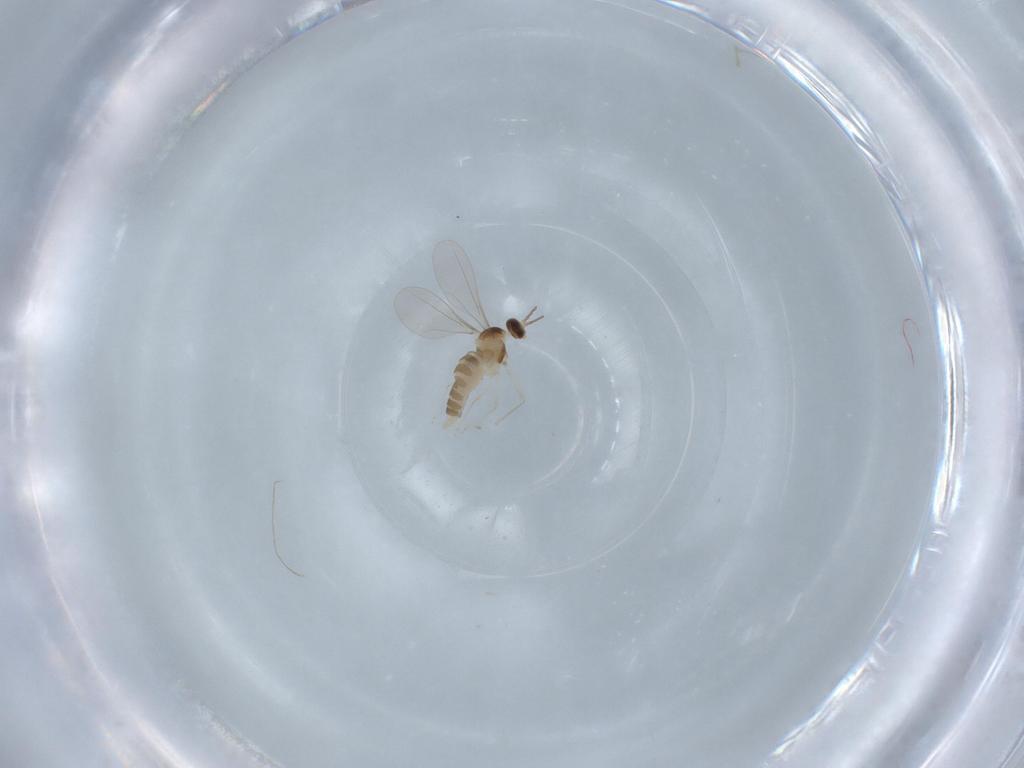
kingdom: Animalia
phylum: Arthropoda
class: Insecta
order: Diptera
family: Cecidomyiidae
